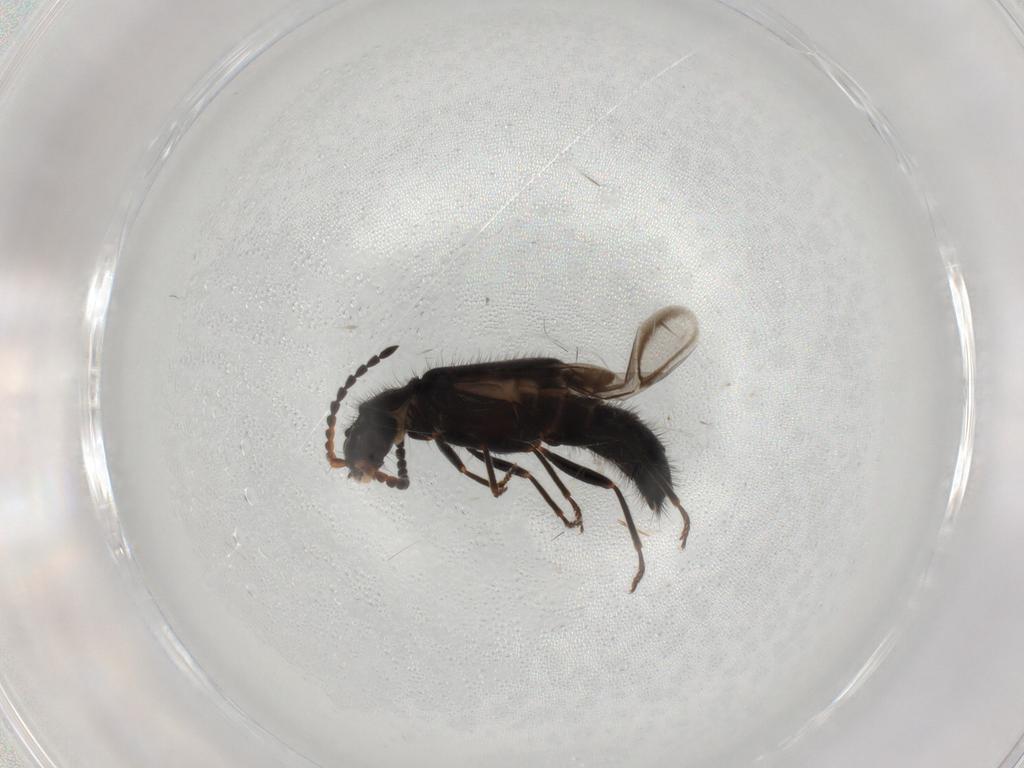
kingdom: Animalia
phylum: Arthropoda
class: Insecta
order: Coleoptera
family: Melyridae
